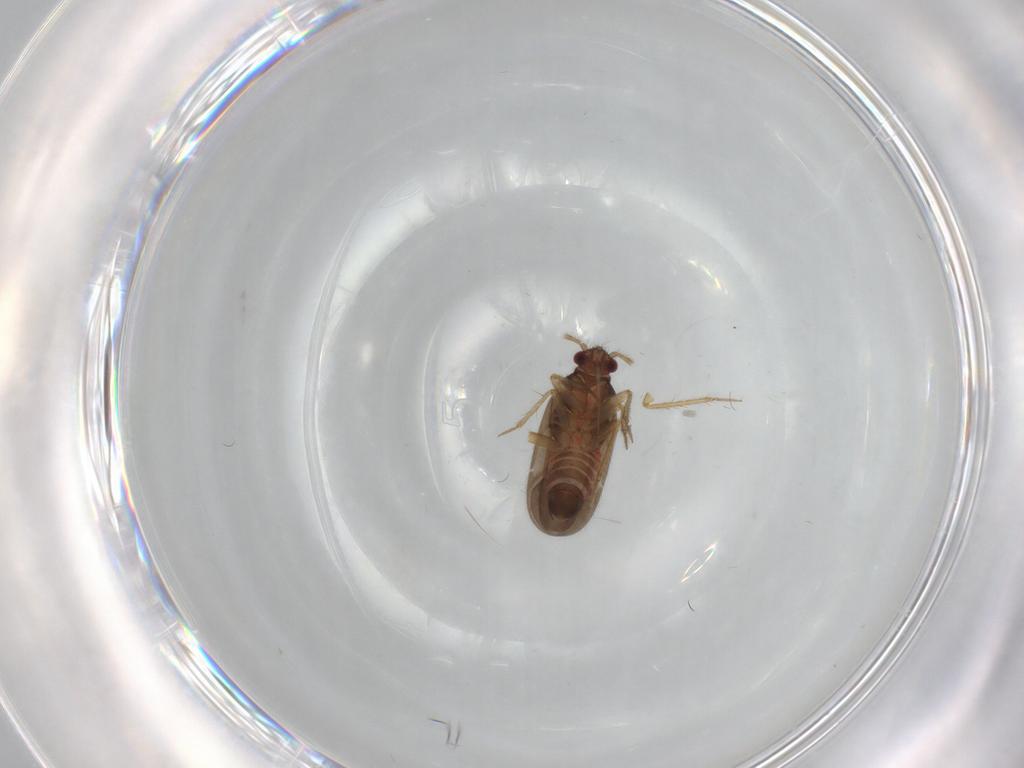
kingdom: Animalia
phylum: Arthropoda
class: Insecta
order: Hemiptera
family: Ceratocombidae
